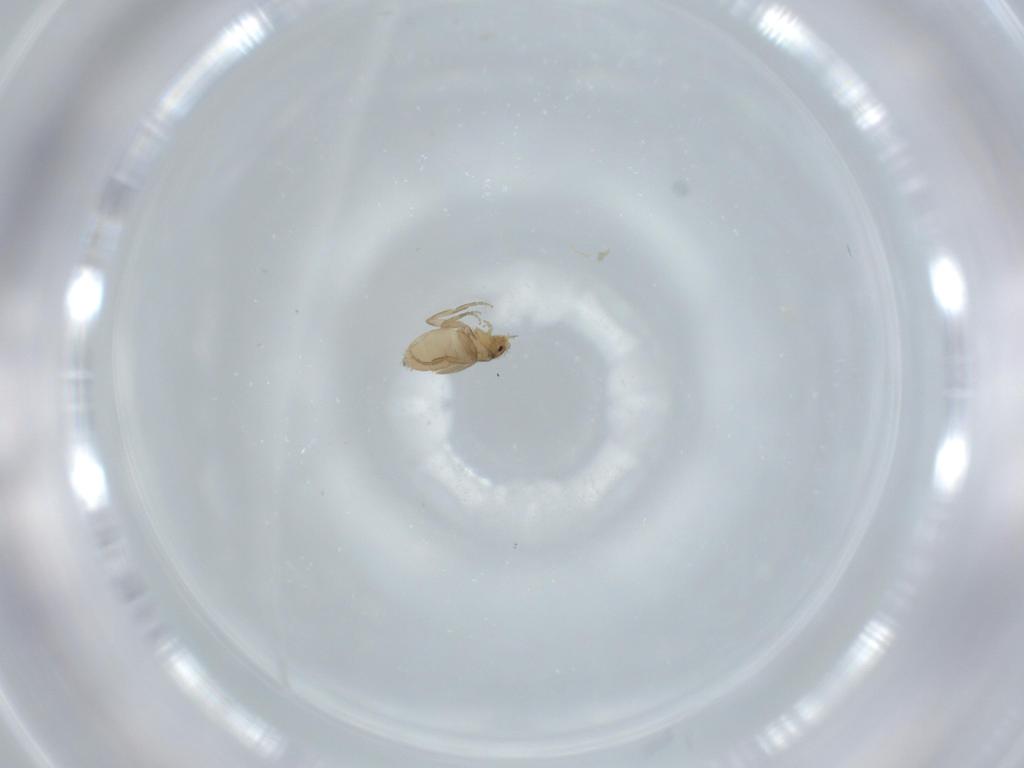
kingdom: Animalia
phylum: Arthropoda
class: Insecta
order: Diptera
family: Phoridae
